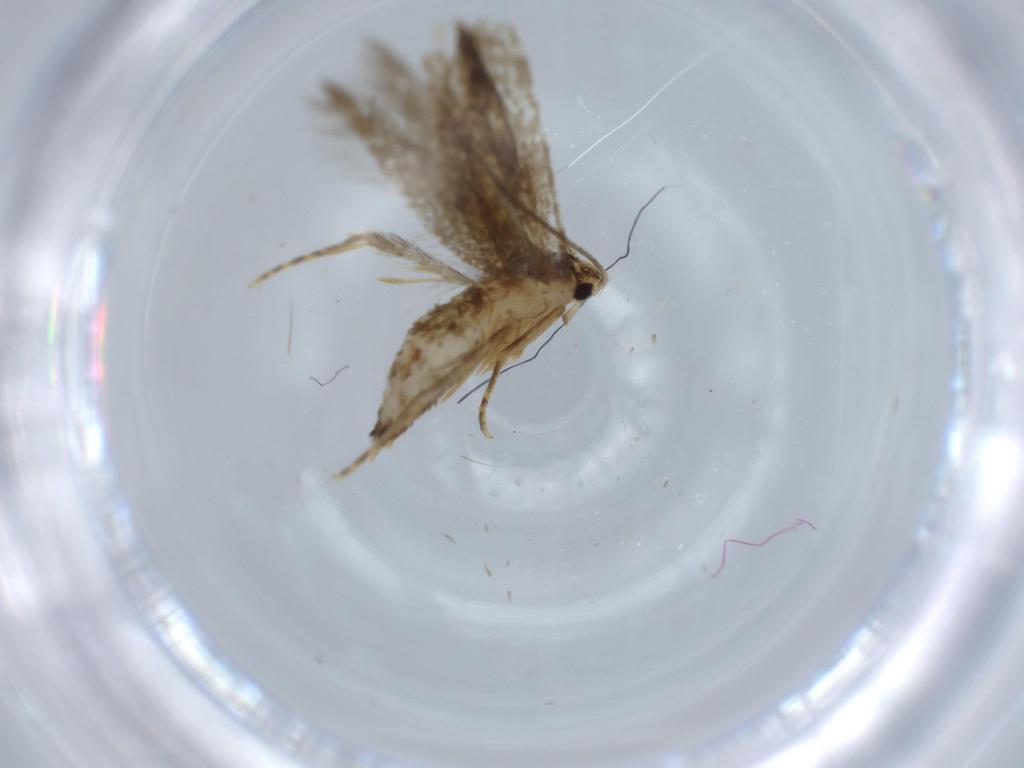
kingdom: Animalia
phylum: Arthropoda
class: Insecta
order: Lepidoptera
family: Tineidae
